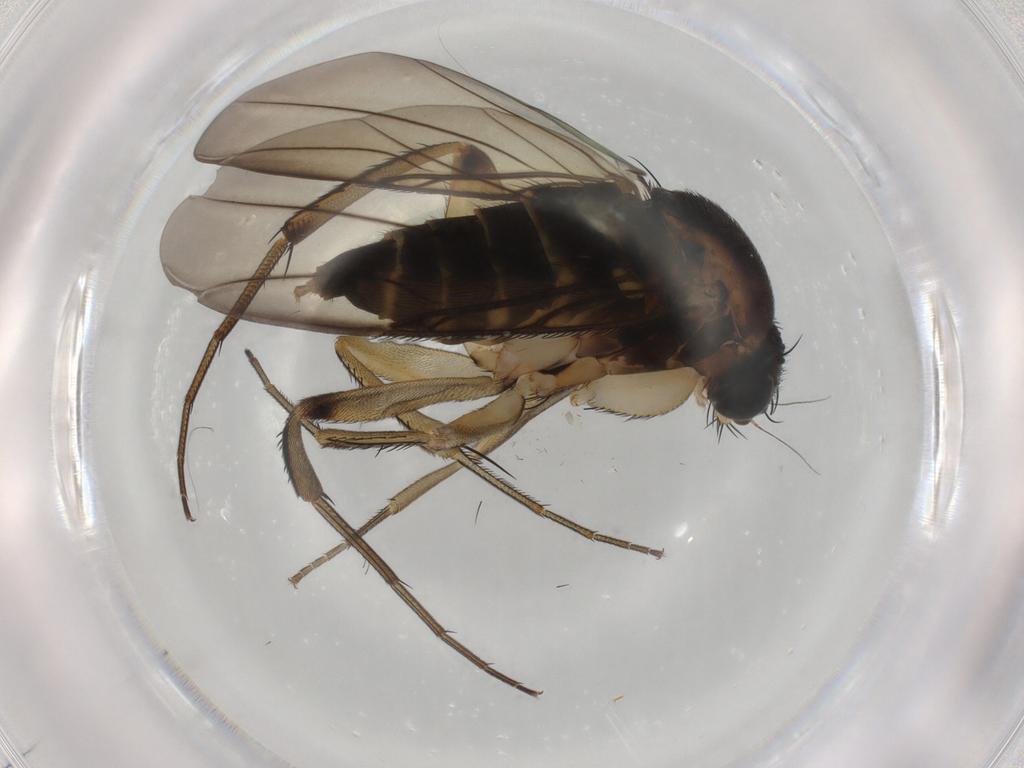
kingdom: Animalia
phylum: Arthropoda
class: Insecta
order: Diptera
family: Phoridae
